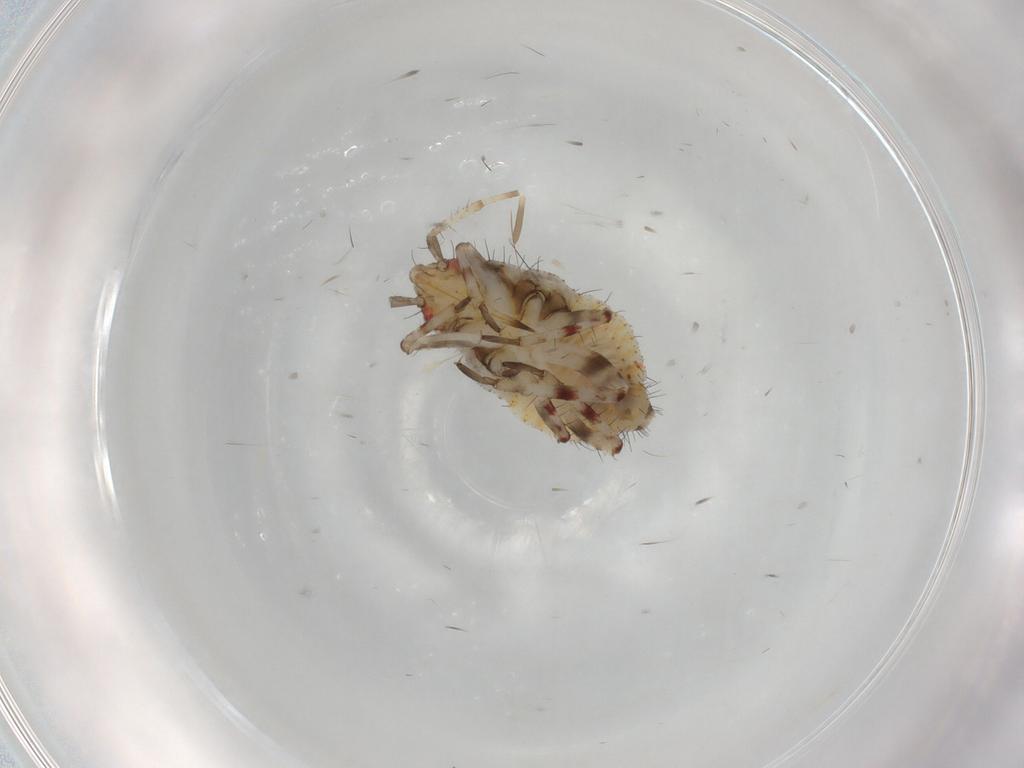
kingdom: Animalia
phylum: Arthropoda
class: Insecta
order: Hemiptera
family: Miridae
